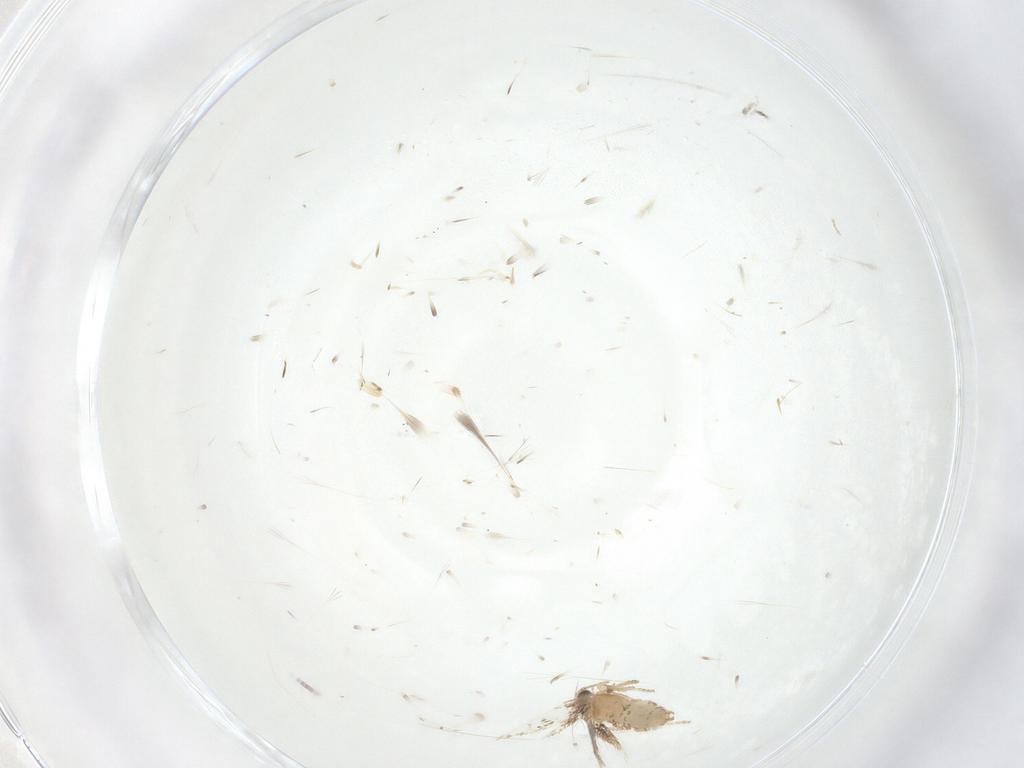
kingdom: Animalia
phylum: Arthropoda
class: Insecta
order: Lepidoptera
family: Nepticulidae
